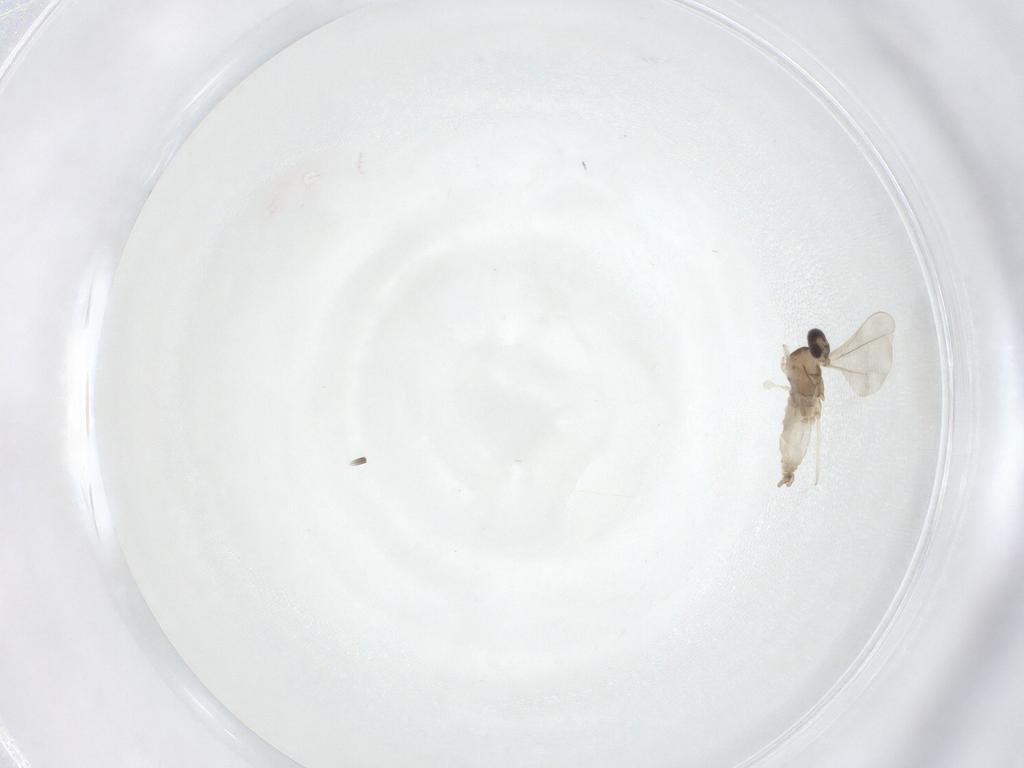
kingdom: Animalia
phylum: Arthropoda
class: Insecta
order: Diptera
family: Cecidomyiidae
